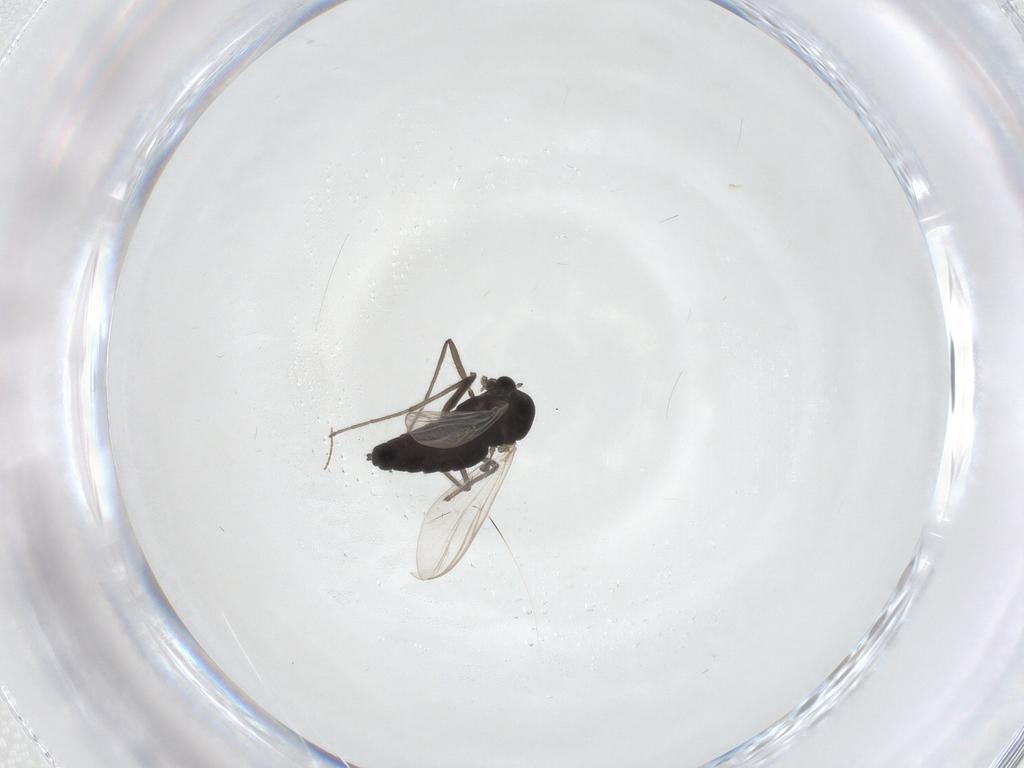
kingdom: Animalia
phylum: Arthropoda
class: Insecta
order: Diptera
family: Chironomidae
